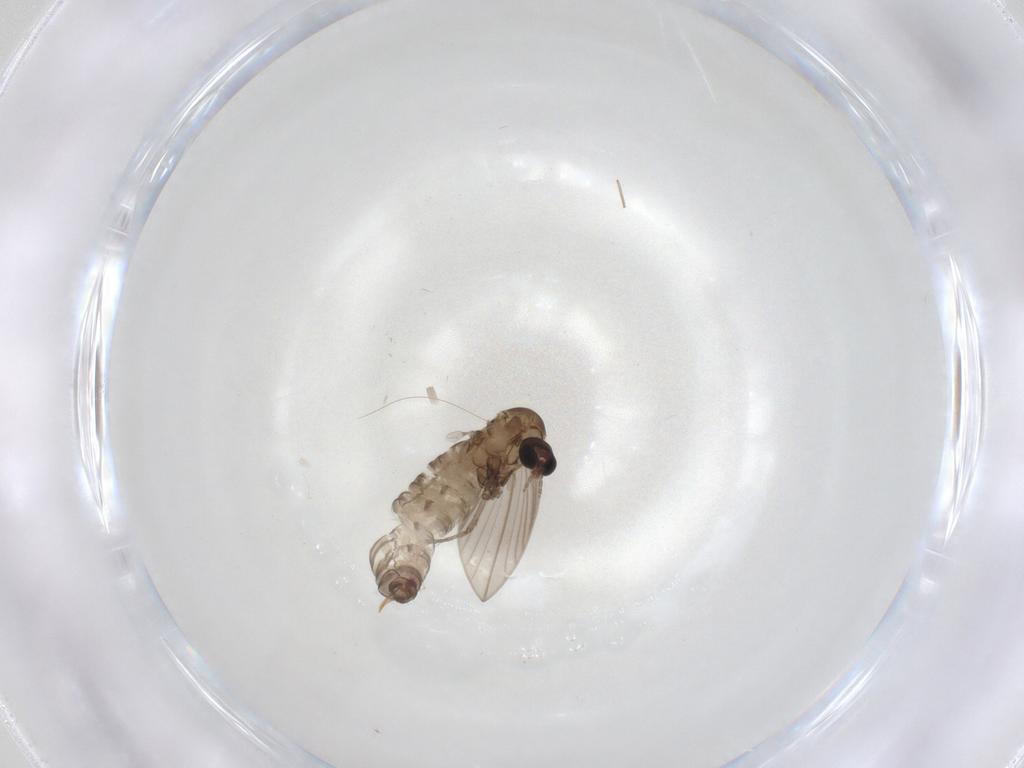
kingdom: Animalia
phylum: Arthropoda
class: Insecta
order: Diptera
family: Psychodidae
